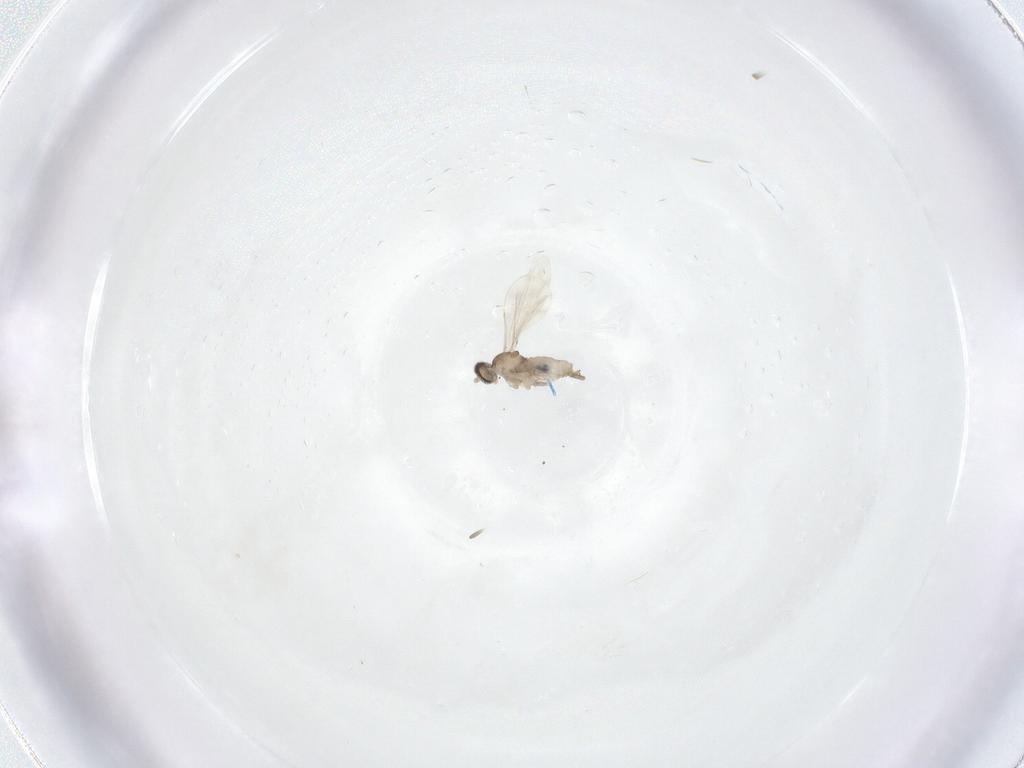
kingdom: Animalia
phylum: Arthropoda
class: Insecta
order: Diptera
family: Cecidomyiidae
